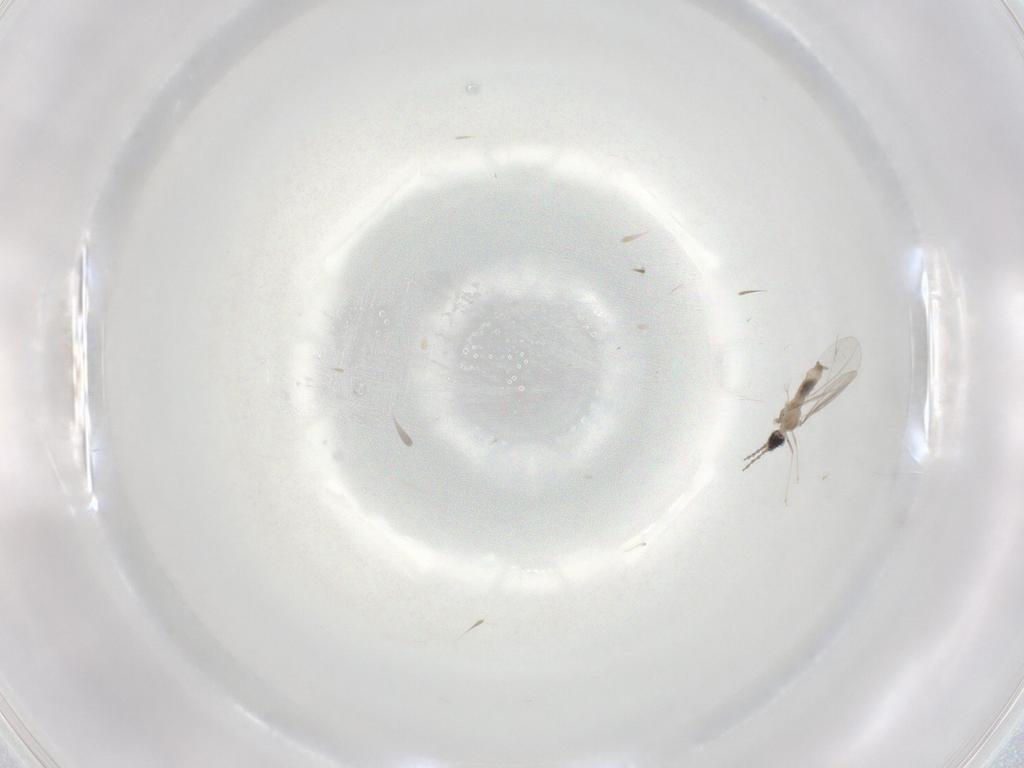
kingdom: Animalia
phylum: Arthropoda
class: Insecta
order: Diptera
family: Cecidomyiidae
